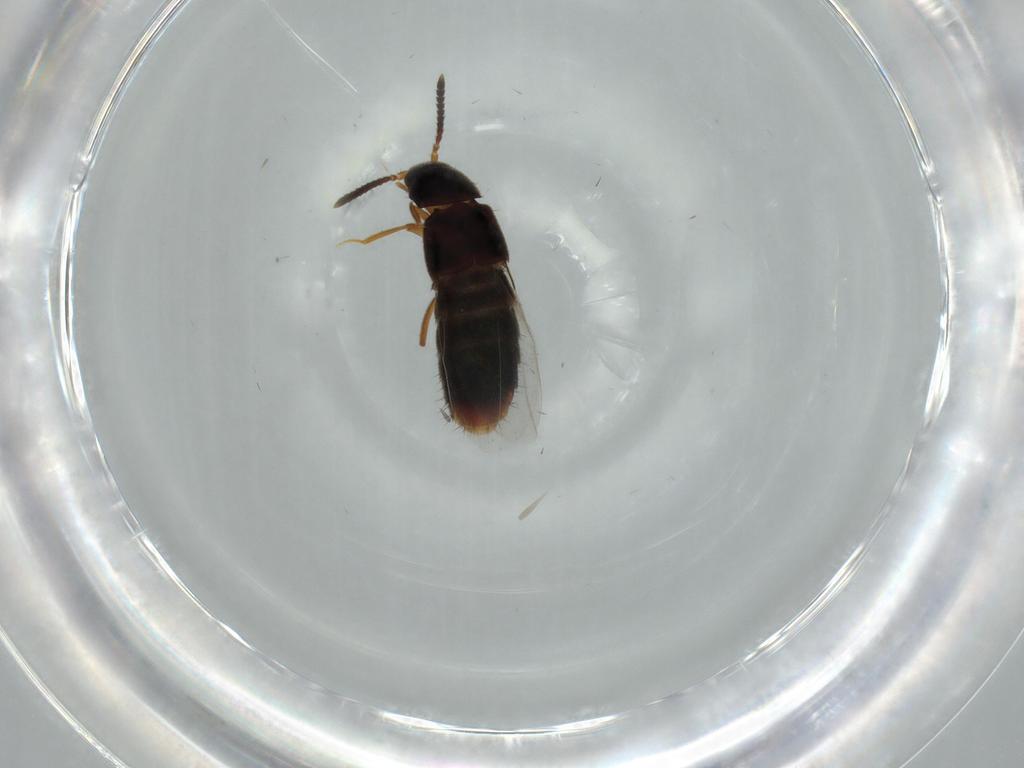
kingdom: Animalia
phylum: Arthropoda
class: Insecta
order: Coleoptera
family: Staphylinidae
